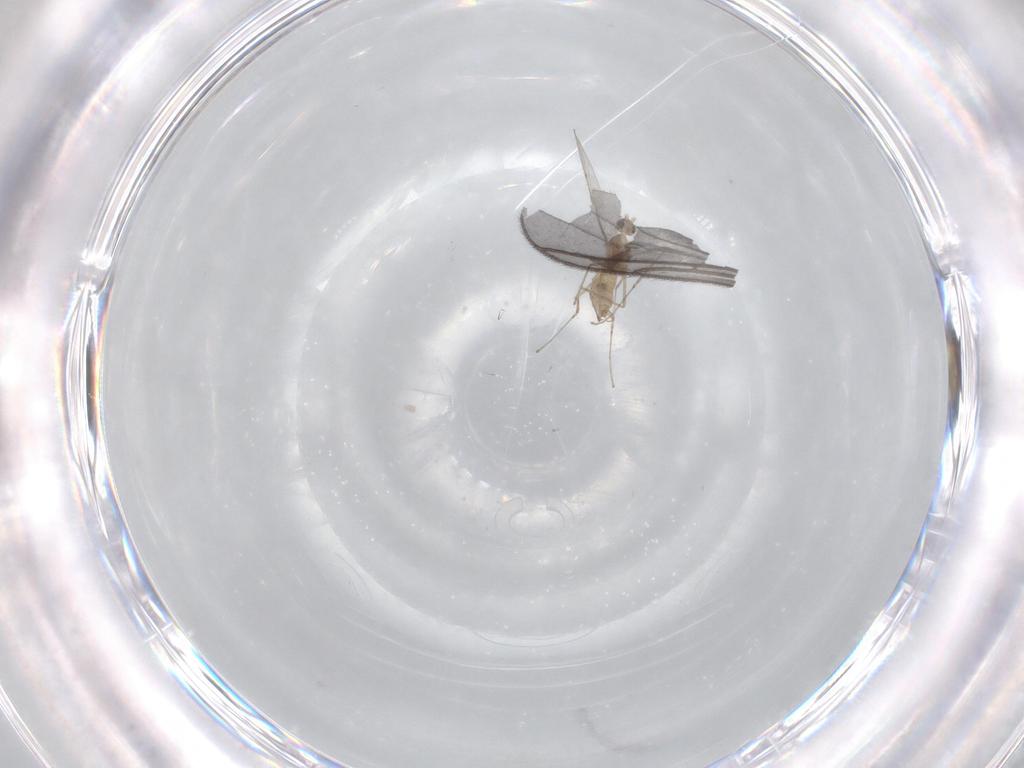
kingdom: Animalia
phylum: Arthropoda
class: Insecta
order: Diptera
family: Sciaridae
